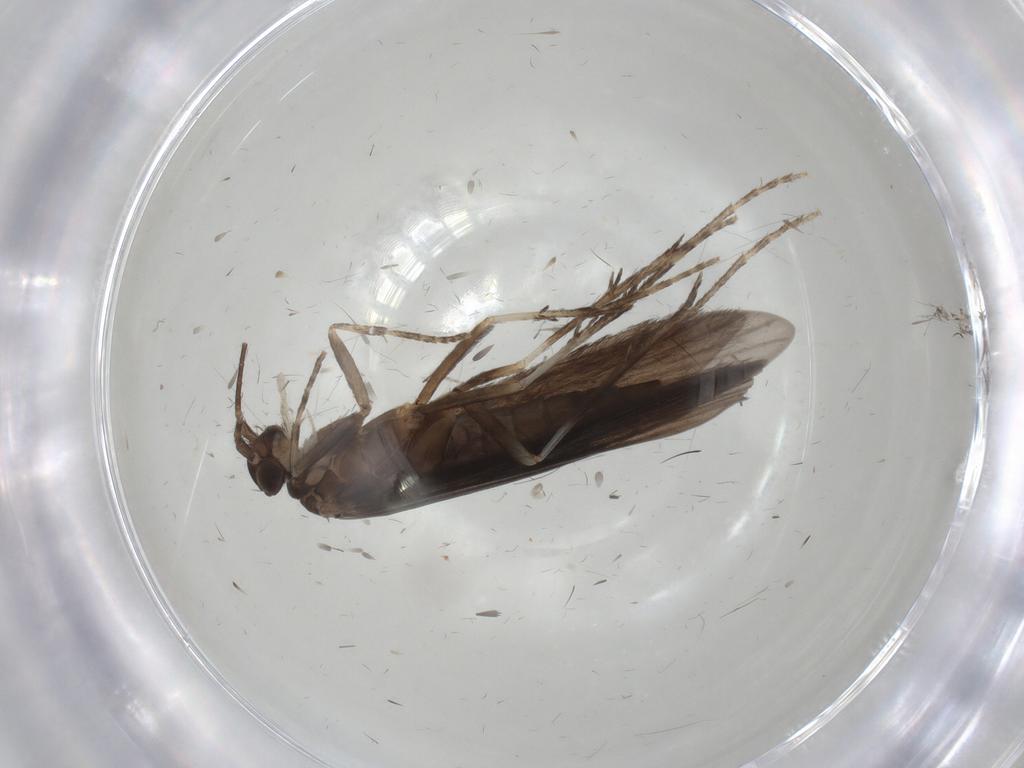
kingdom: Animalia
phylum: Arthropoda
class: Insecta
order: Trichoptera
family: Xiphocentronidae
